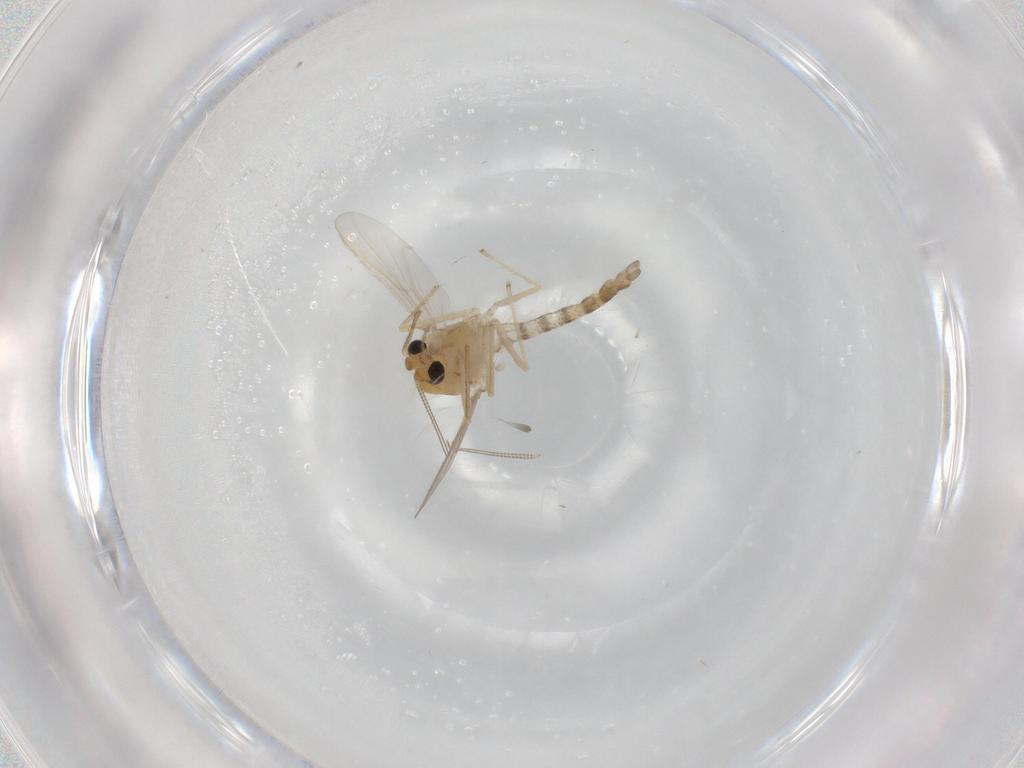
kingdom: Animalia
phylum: Arthropoda
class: Insecta
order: Diptera
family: Chironomidae
